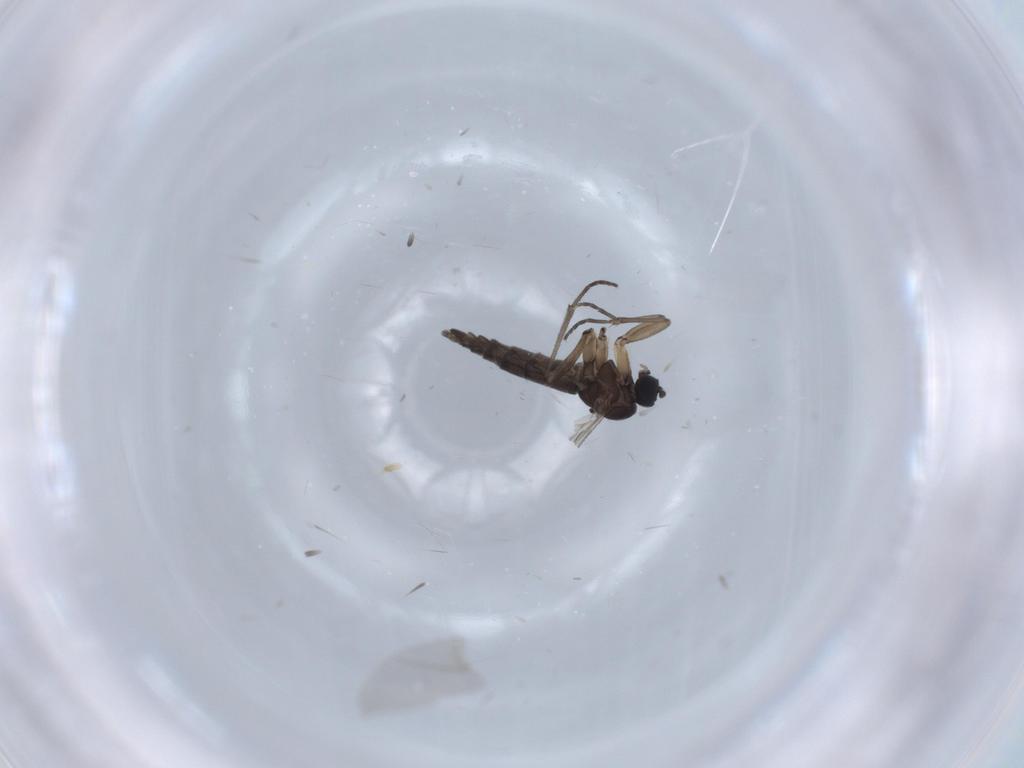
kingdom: Animalia
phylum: Arthropoda
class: Insecta
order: Diptera
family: Sciaridae
